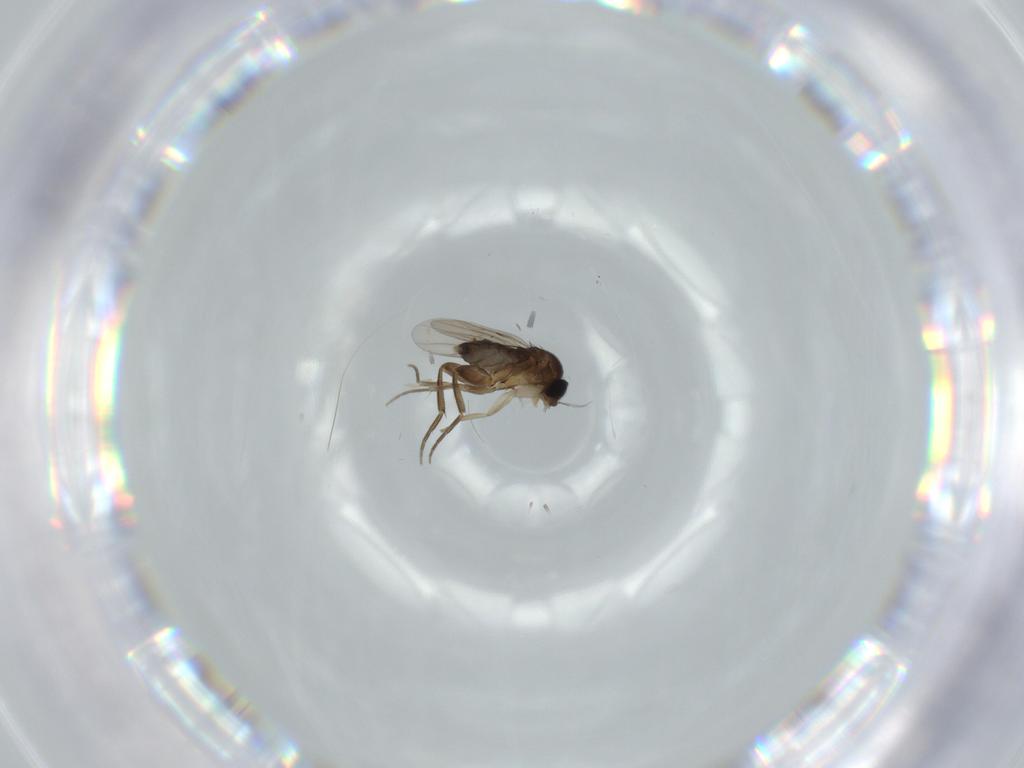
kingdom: Animalia
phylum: Arthropoda
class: Insecta
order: Diptera
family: Phoridae
